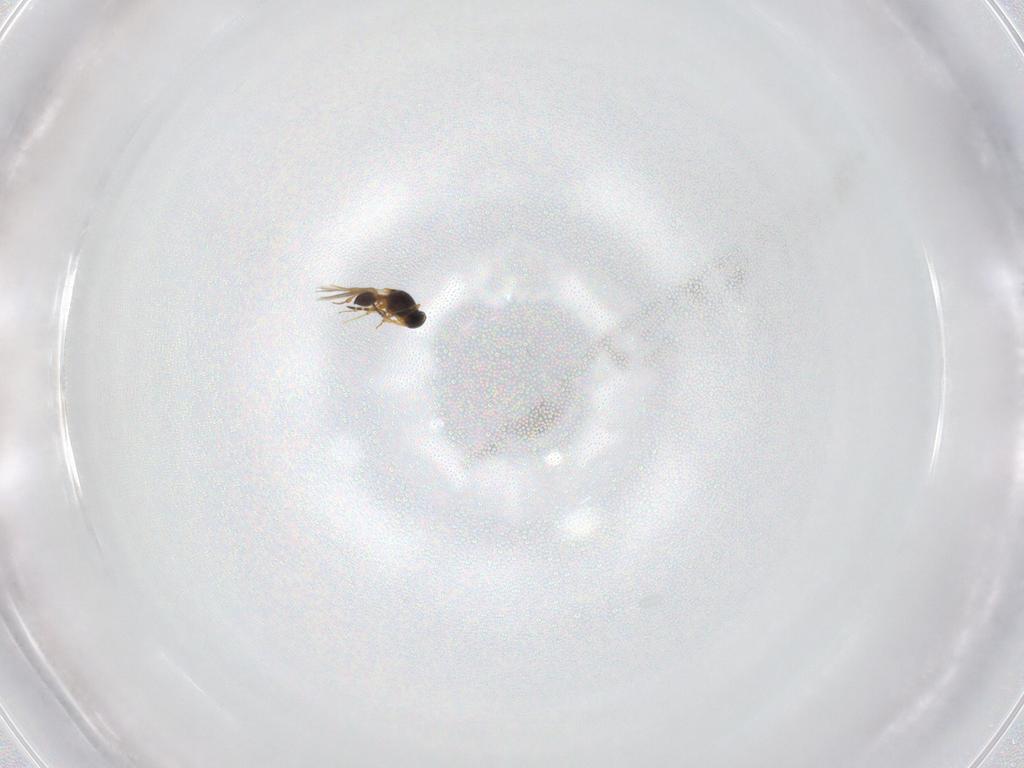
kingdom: Animalia
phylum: Arthropoda
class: Insecta
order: Hymenoptera
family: Platygastridae
